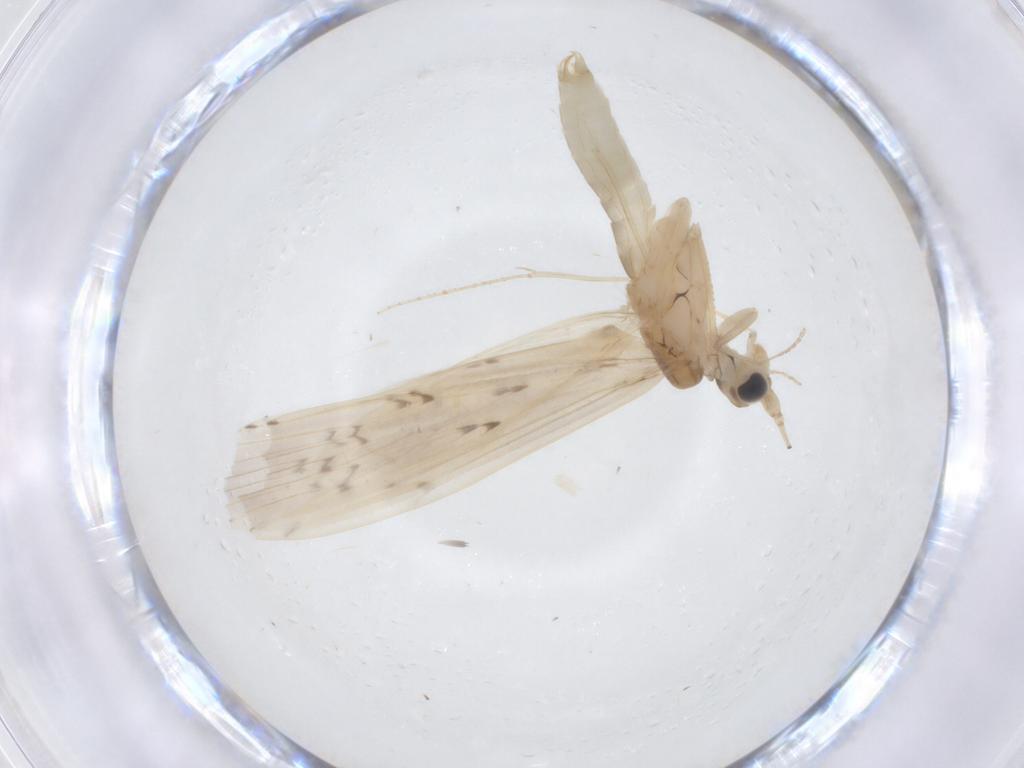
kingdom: Animalia
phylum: Arthropoda
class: Insecta
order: Trichoptera
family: Leptoceridae
